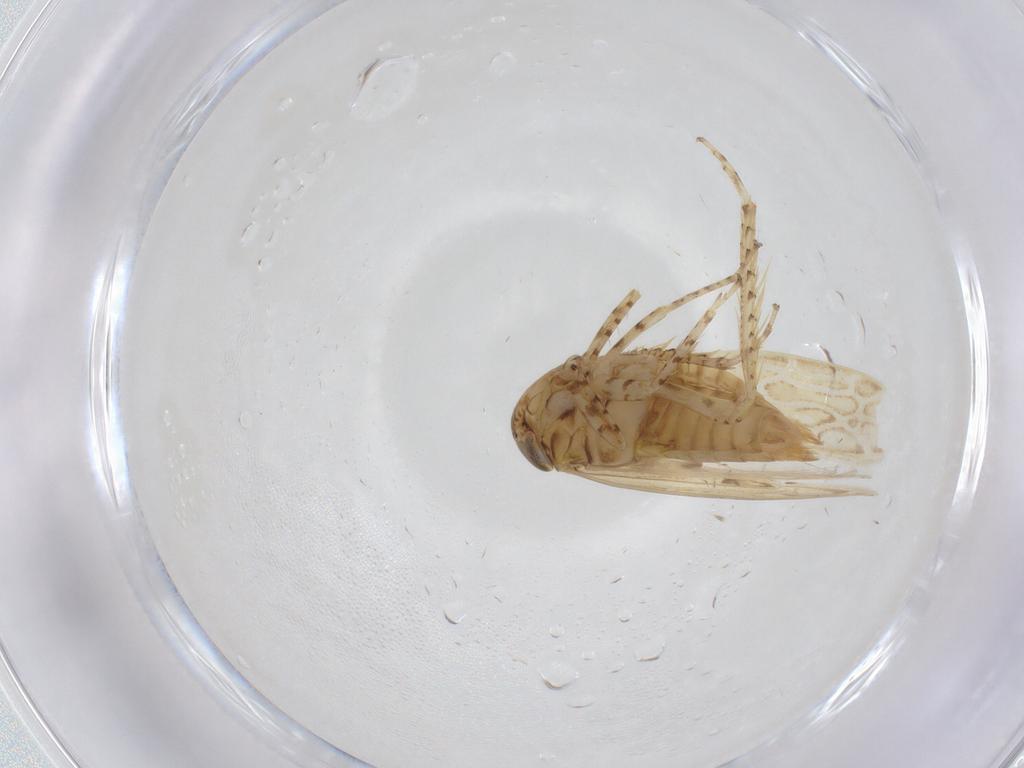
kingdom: Animalia
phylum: Arthropoda
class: Insecta
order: Hemiptera
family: Cicadellidae
